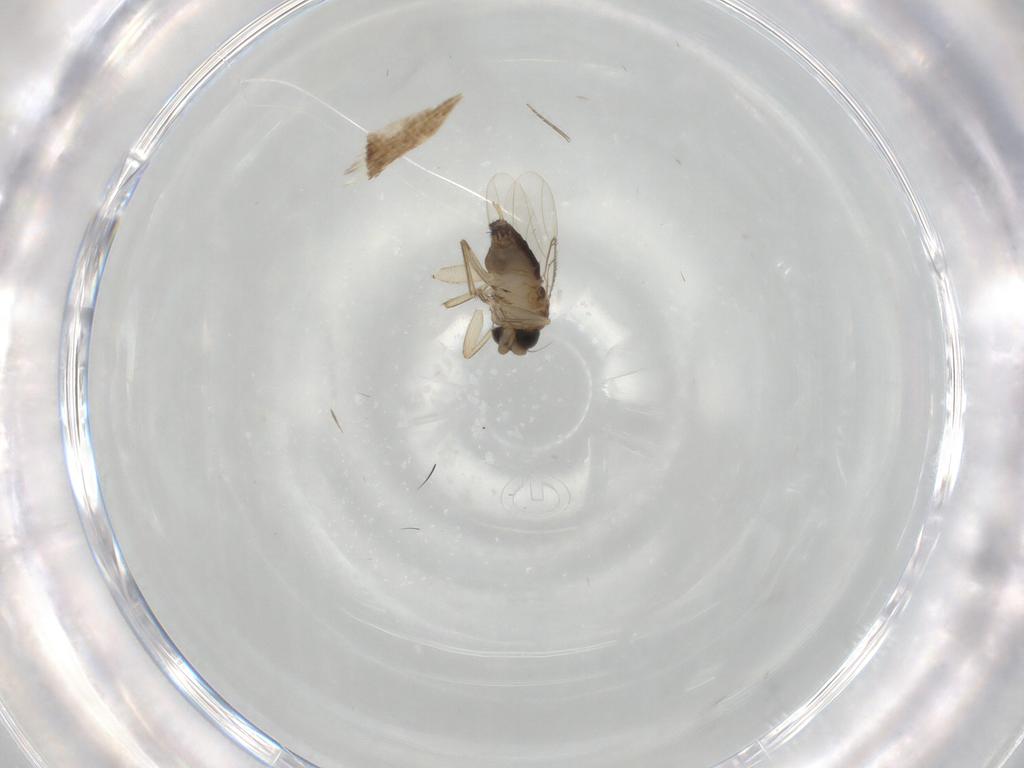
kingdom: Animalia
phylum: Arthropoda
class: Insecta
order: Diptera
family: Phoridae
